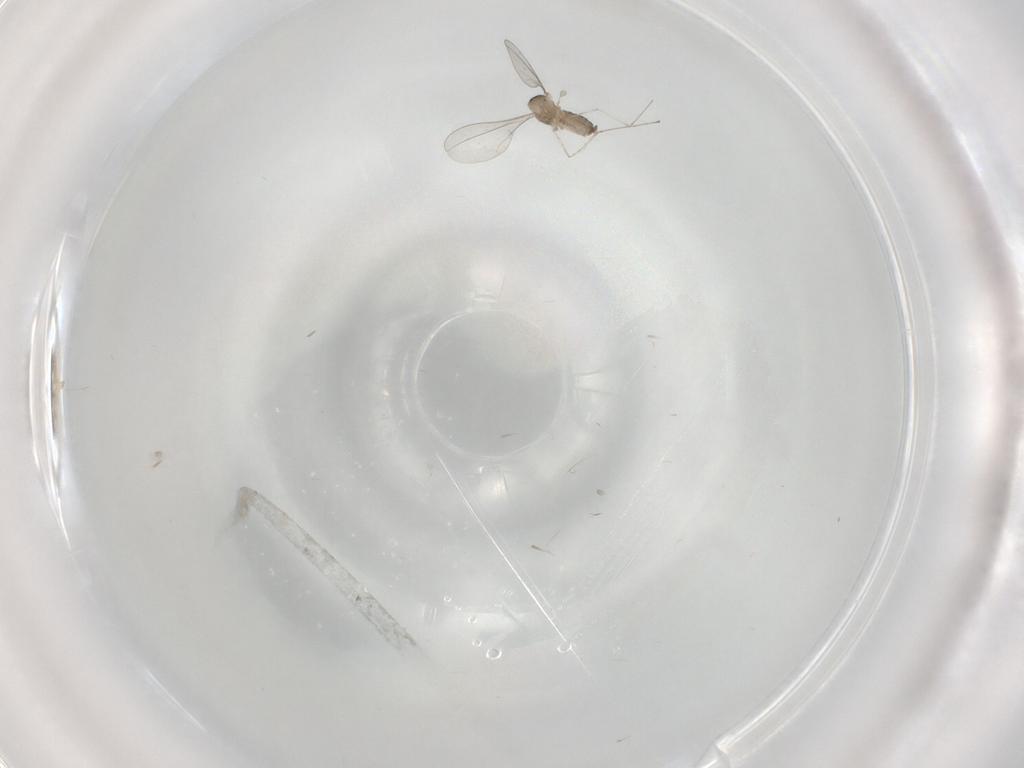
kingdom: Animalia
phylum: Arthropoda
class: Insecta
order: Diptera
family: Cecidomyiidae
